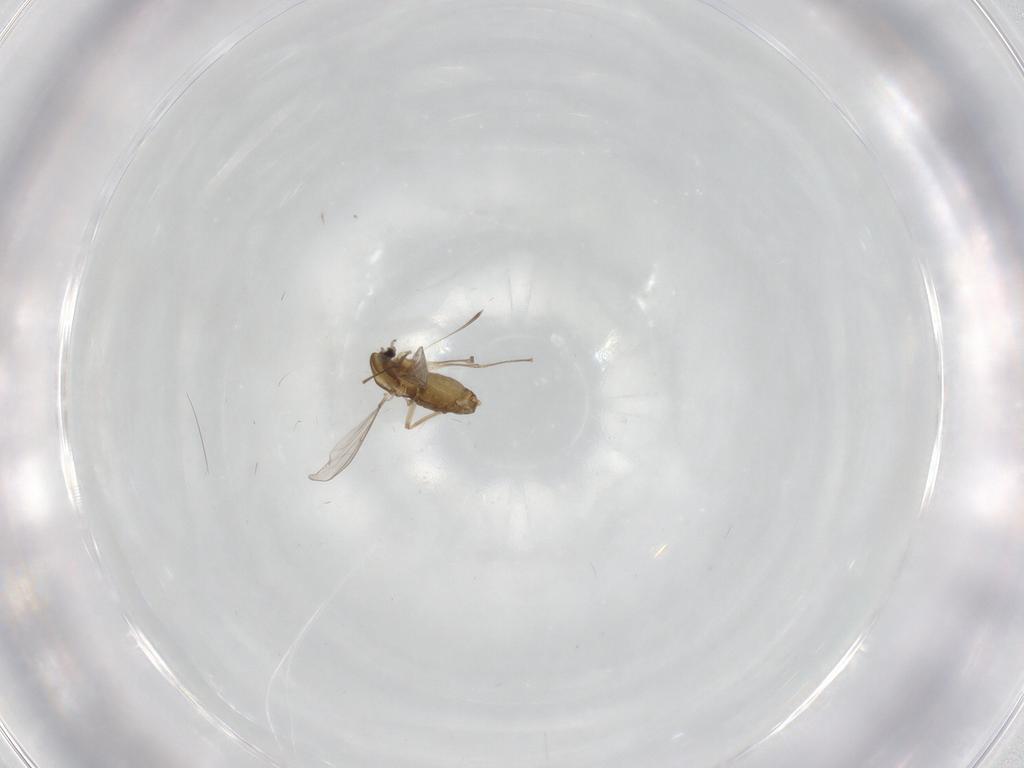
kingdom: Animalia
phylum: Arthropoda
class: Insecta
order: Diptera
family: Chironomidae
